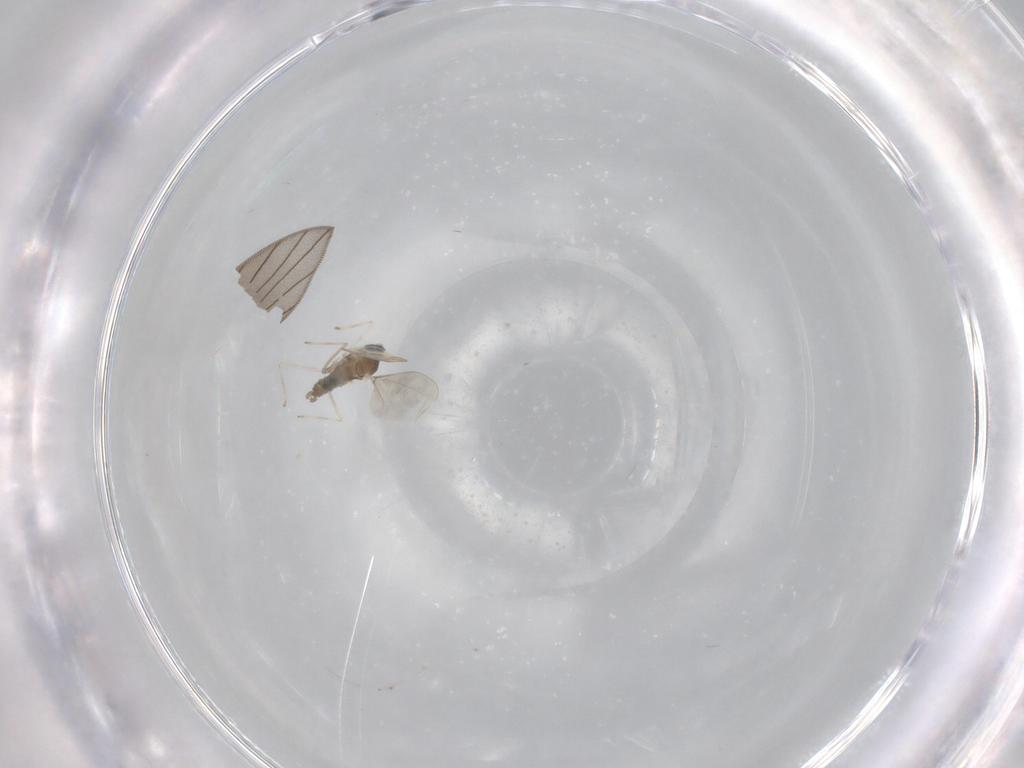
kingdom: Animalia
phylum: Arthropoda
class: Insecta
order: Diptera
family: Cecidomyiidae
